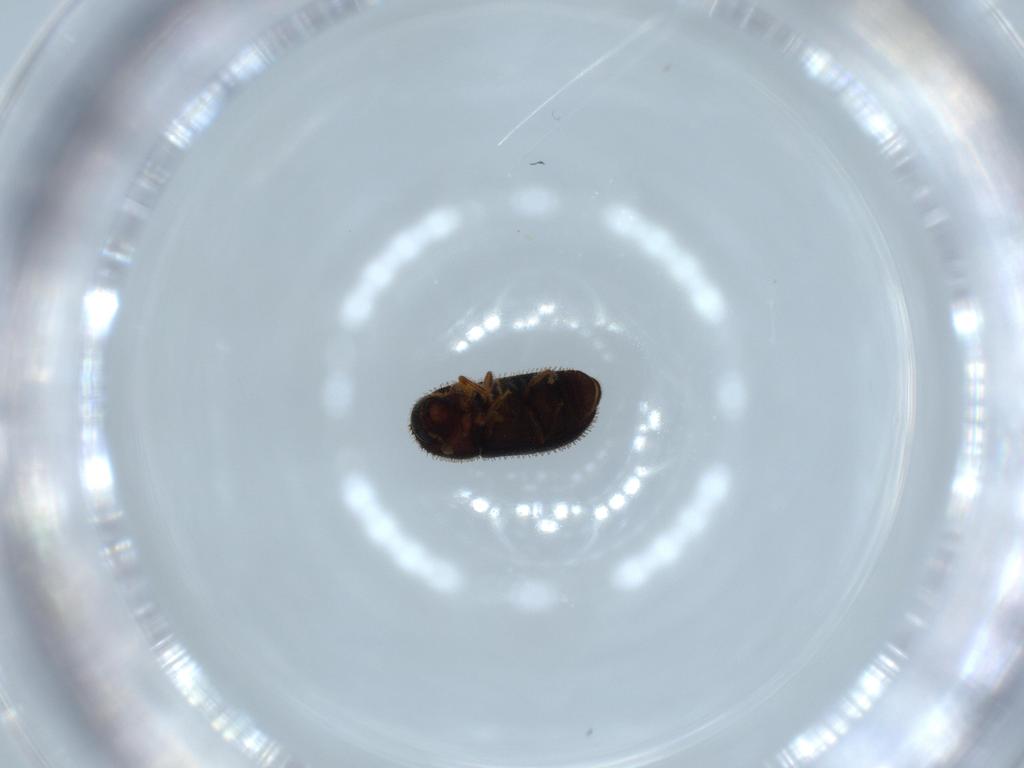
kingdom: Animalia
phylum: Arthropoda
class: Insecta
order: Coleoptera
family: Curculionidae
